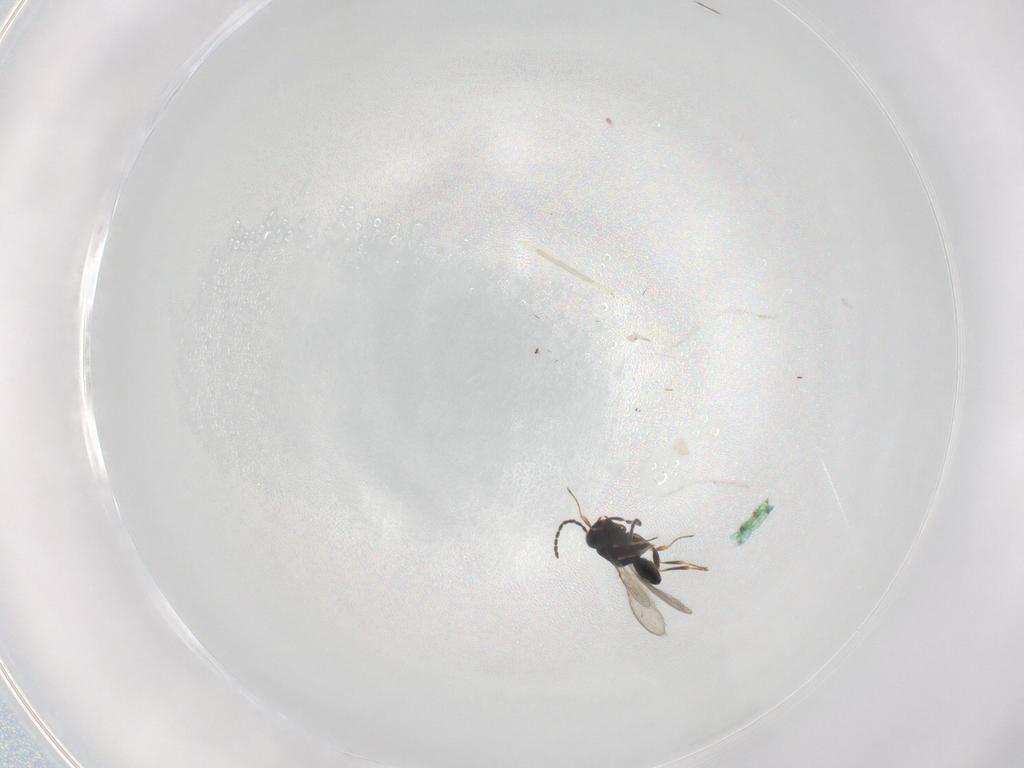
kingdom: Animalia
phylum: Arthropoda
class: Insecta
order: Hymenoptera
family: Scelionidae
